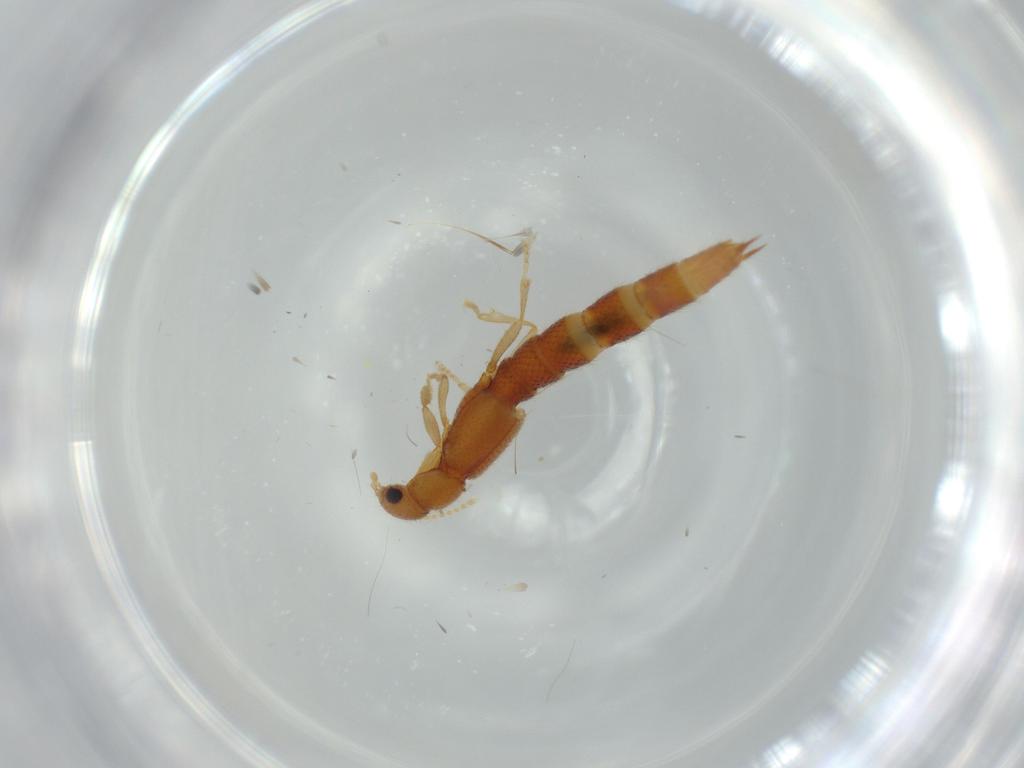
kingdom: Animalia
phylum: Arthropoda
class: Insecta
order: Coleoptera
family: Staphylinidae
